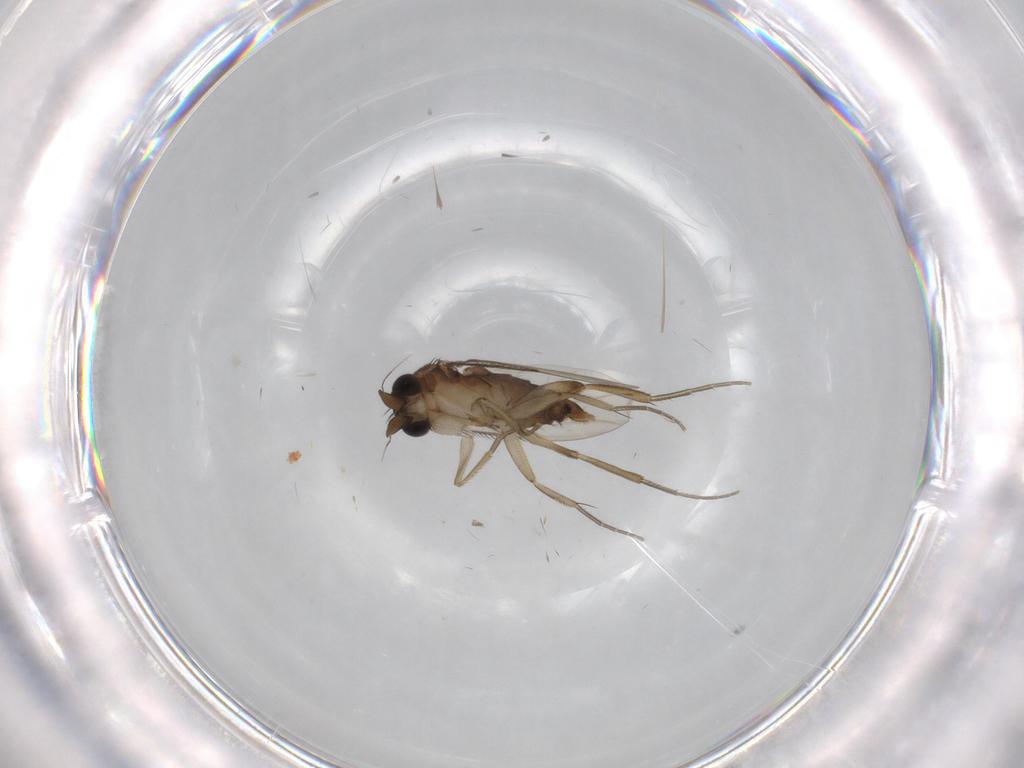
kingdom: Animalia
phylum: Arthropoda
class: Insecta
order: Diptera
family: Phoridae
